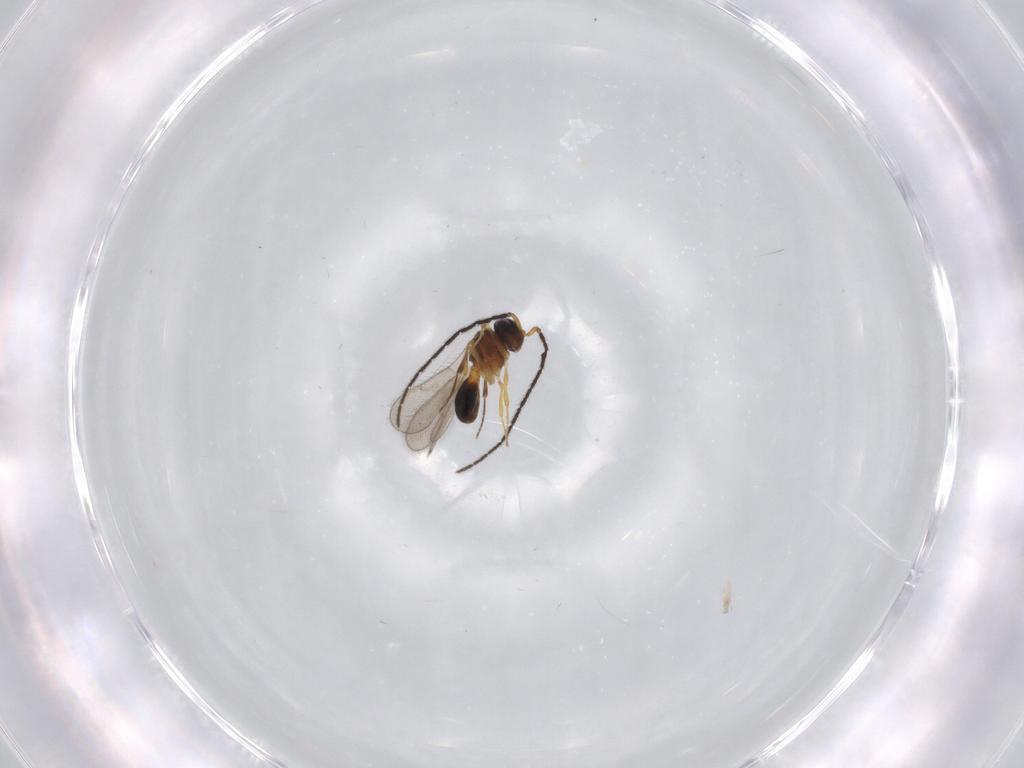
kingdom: Animalia
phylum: Arthropoda
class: Insecta
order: Hymenoptera
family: Scelionidae
